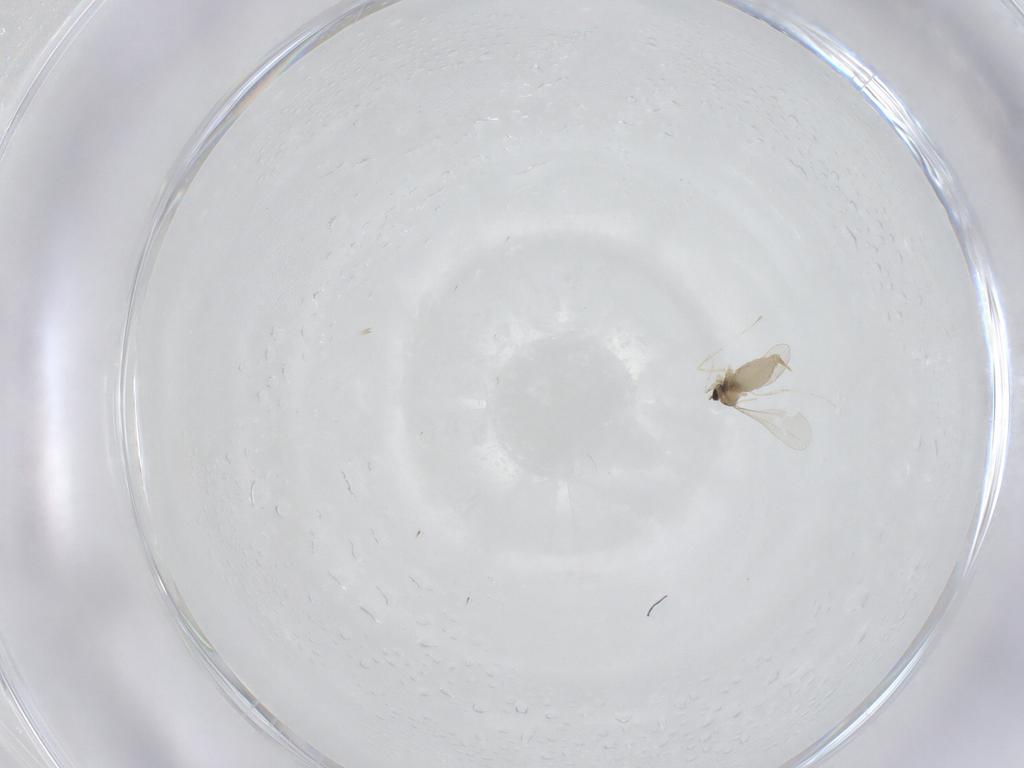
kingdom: Animalia
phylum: Arthropoda
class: Insecta
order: Diptera
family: Cecidomyiidae
